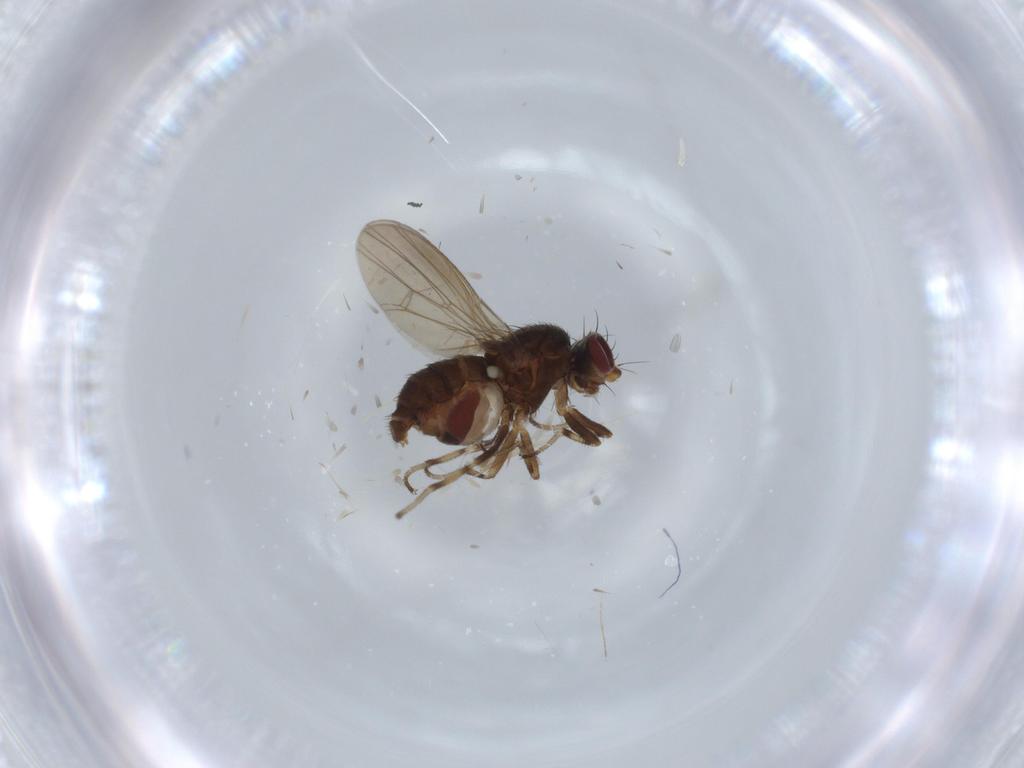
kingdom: Animalia
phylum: Arthropoda
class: Insecta
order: Diptera
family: Heleomyzidae
